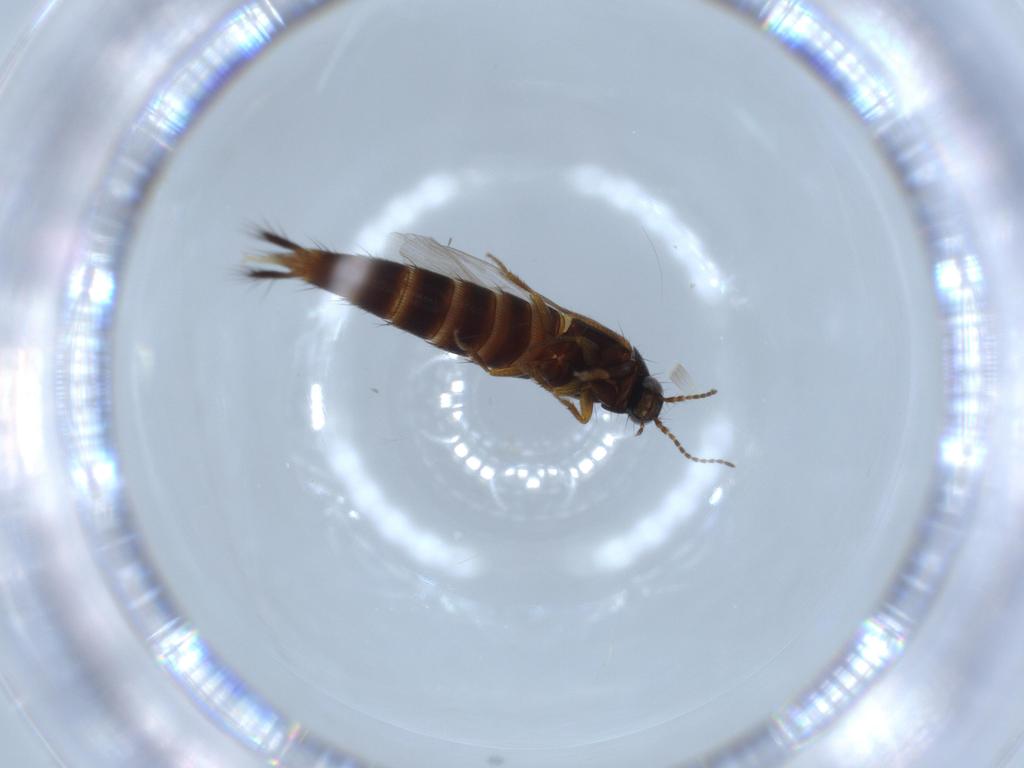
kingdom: Animalia
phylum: Arthropoda
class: Insecta
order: Coleoptera
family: Staphylinidae
